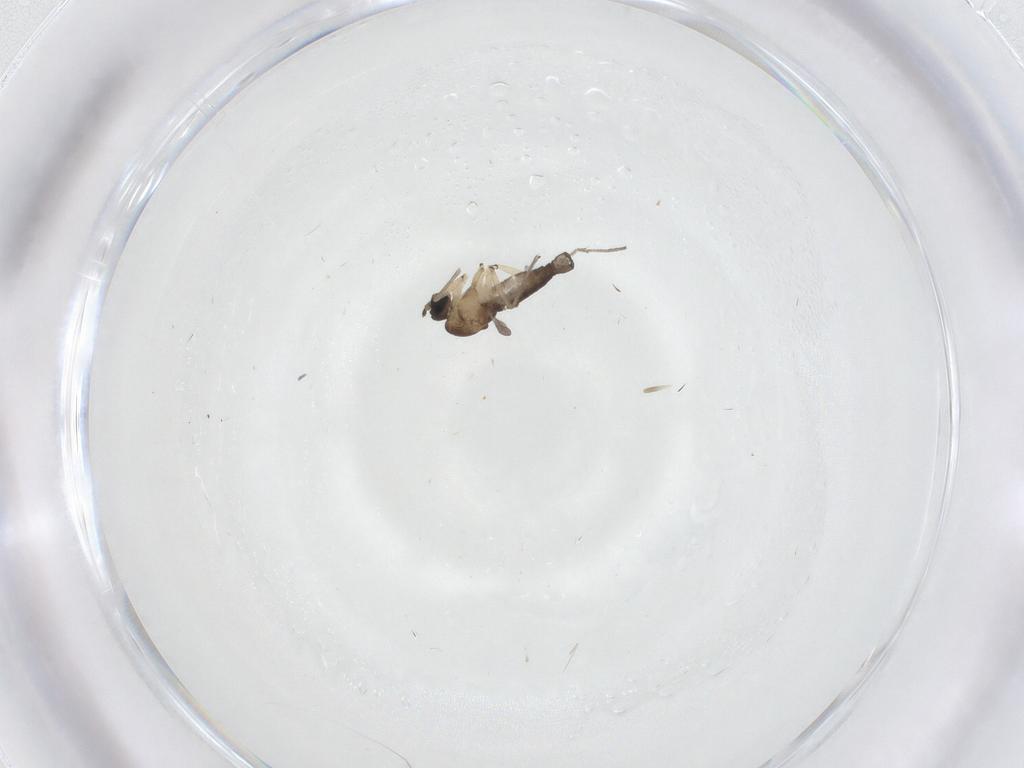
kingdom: Animalia
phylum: Arthropoda
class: Insecta
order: Diptera
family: Sciaridae
